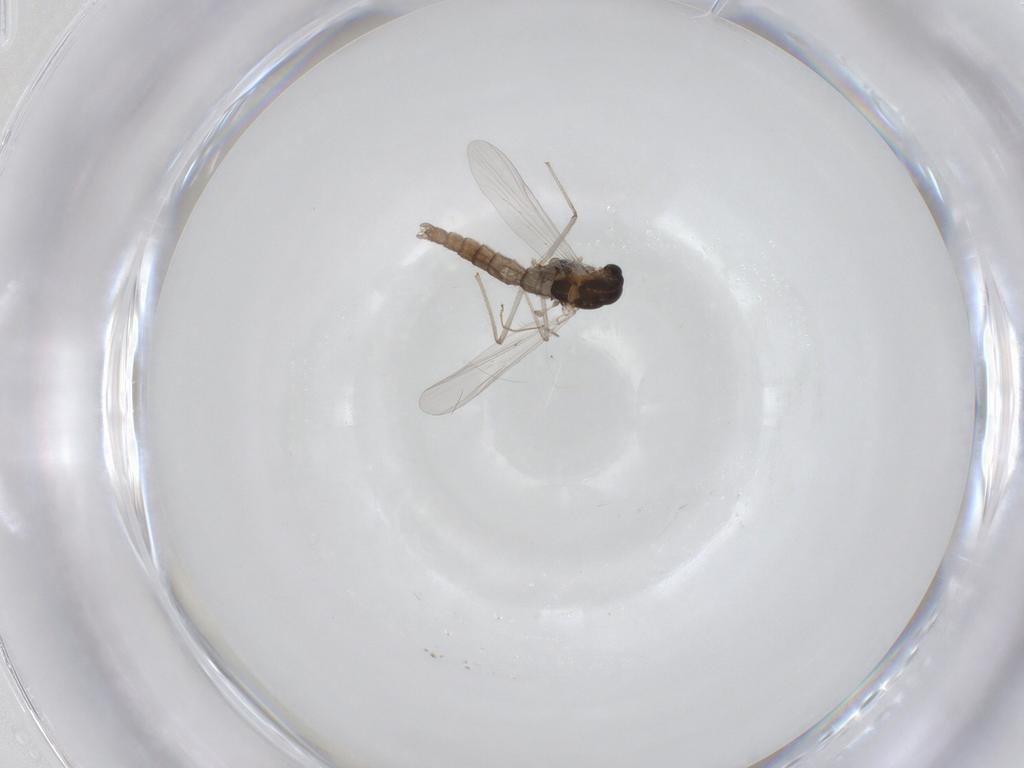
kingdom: Animalia
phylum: Arthropoda
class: Insecta
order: Diptera
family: Chironomidae
